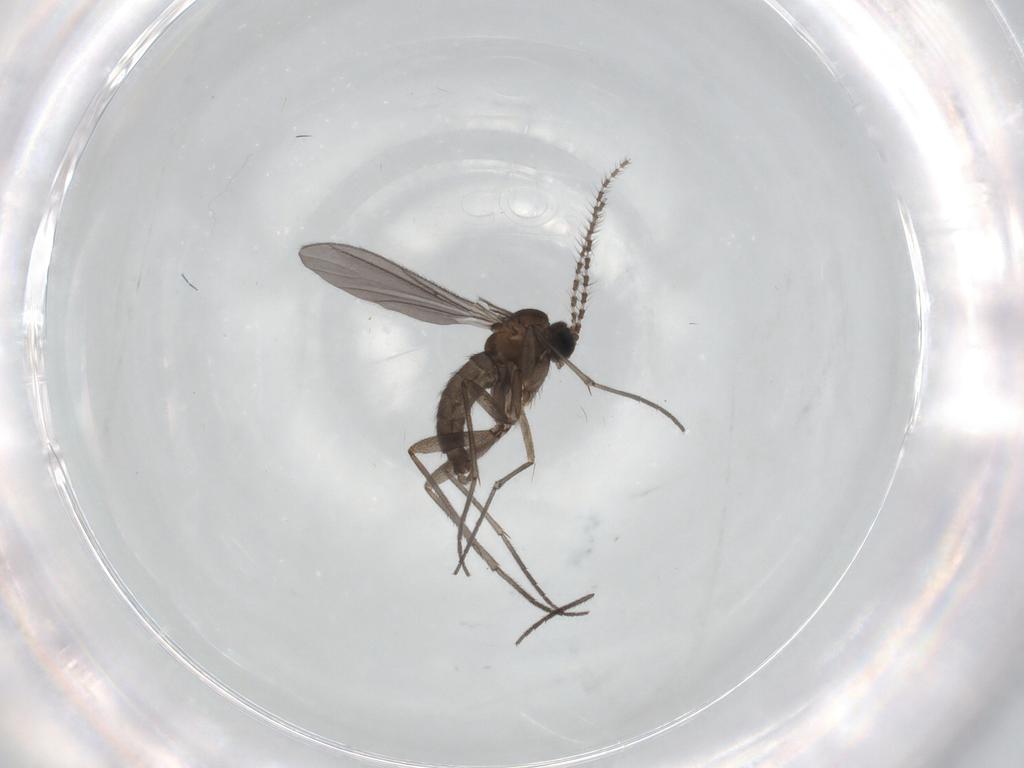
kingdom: Animalia
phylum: Arthropoda
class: Insecta
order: Diptera
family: Sciaridae
